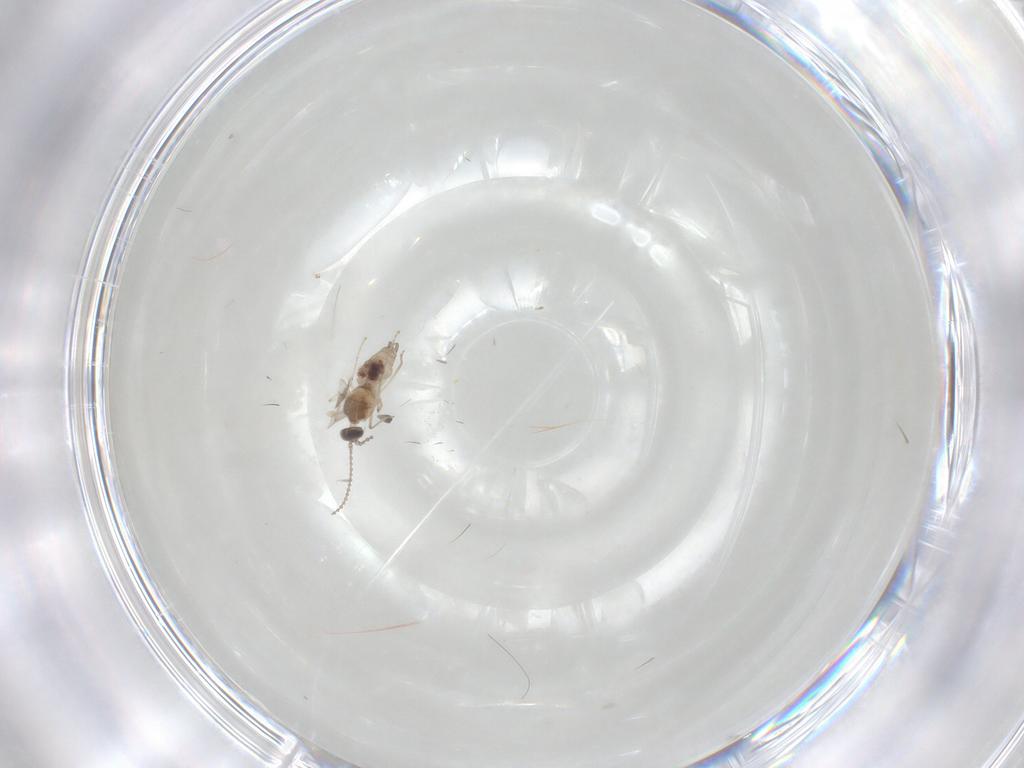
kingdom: Animalia
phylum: Arthropoda
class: Insecta
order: Diptera
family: Cecidomyiidae
